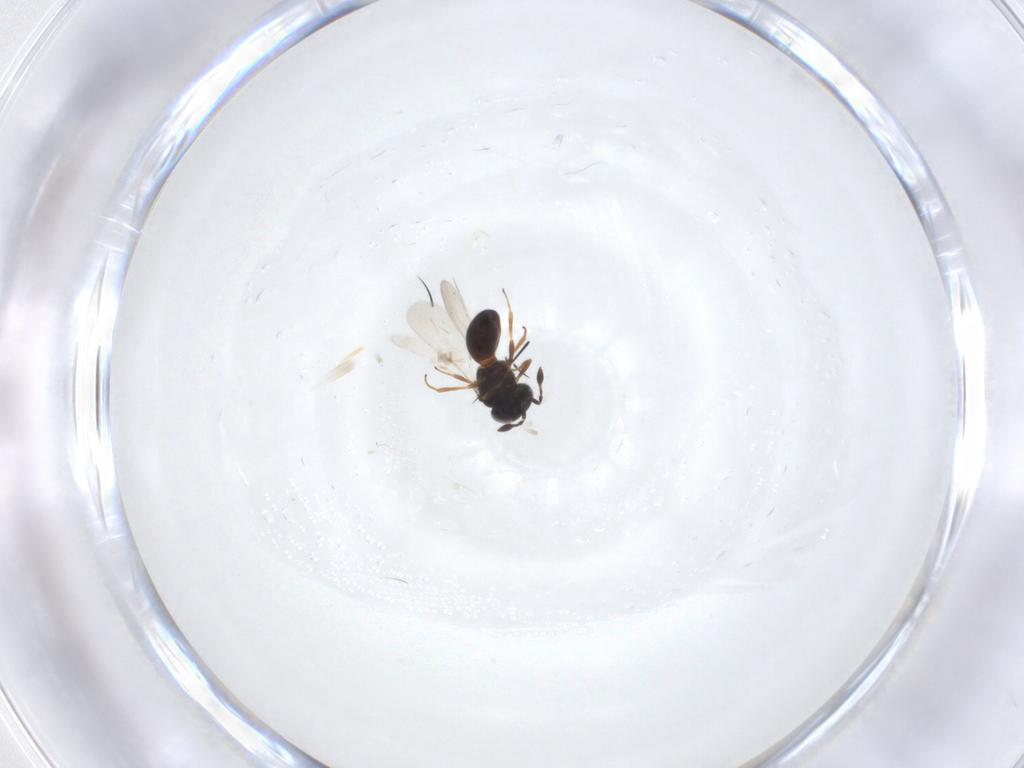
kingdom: Animalia
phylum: Arthropoda
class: Arachnida
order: Araneae
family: Pholcidae
